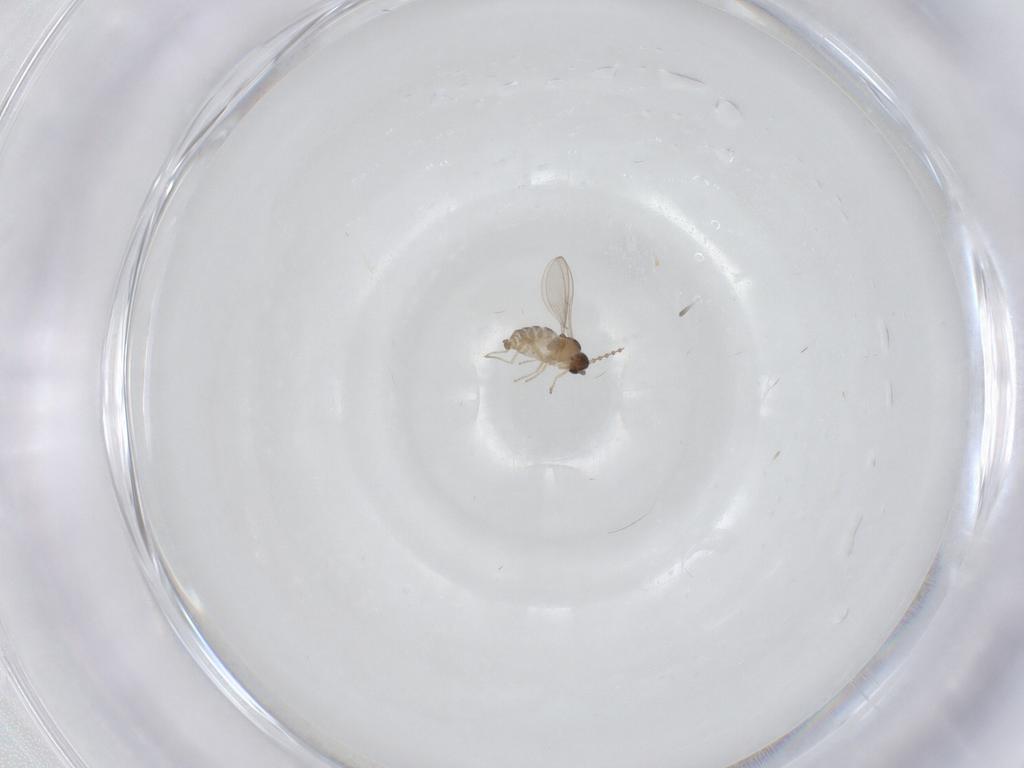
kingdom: Animalia
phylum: Arthropoda
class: Insecta
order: Diptera
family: Cecidomyiidae
